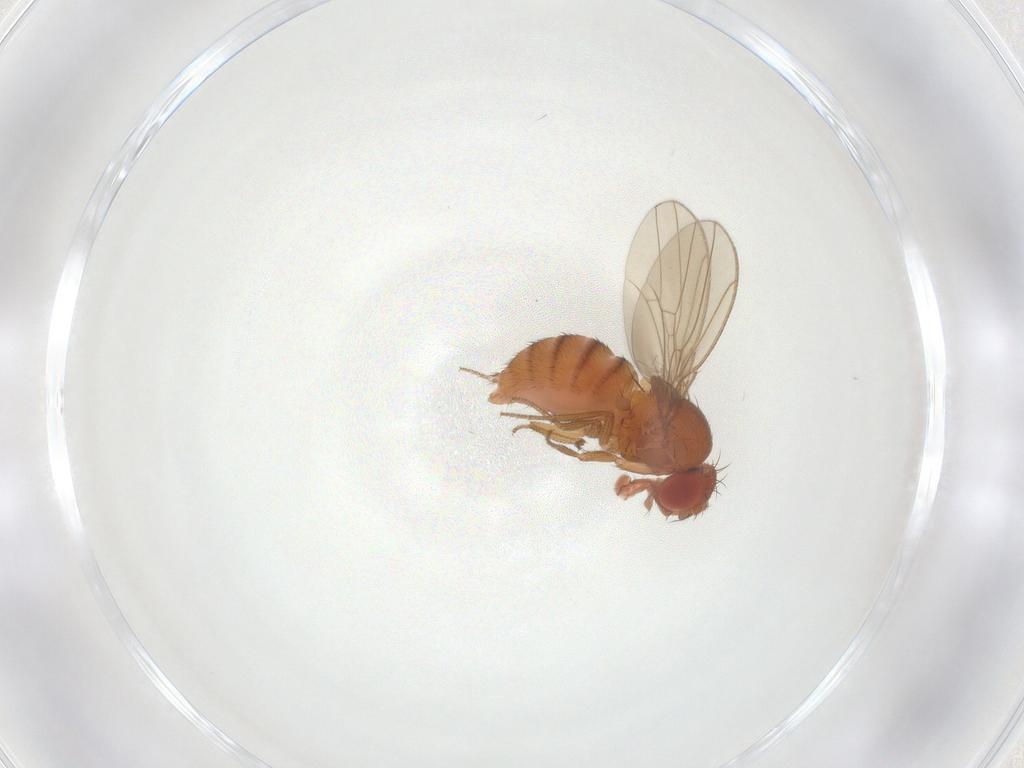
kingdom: Animalia
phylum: Arthropoda
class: Insecta
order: Diptera
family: Drosophilidae
